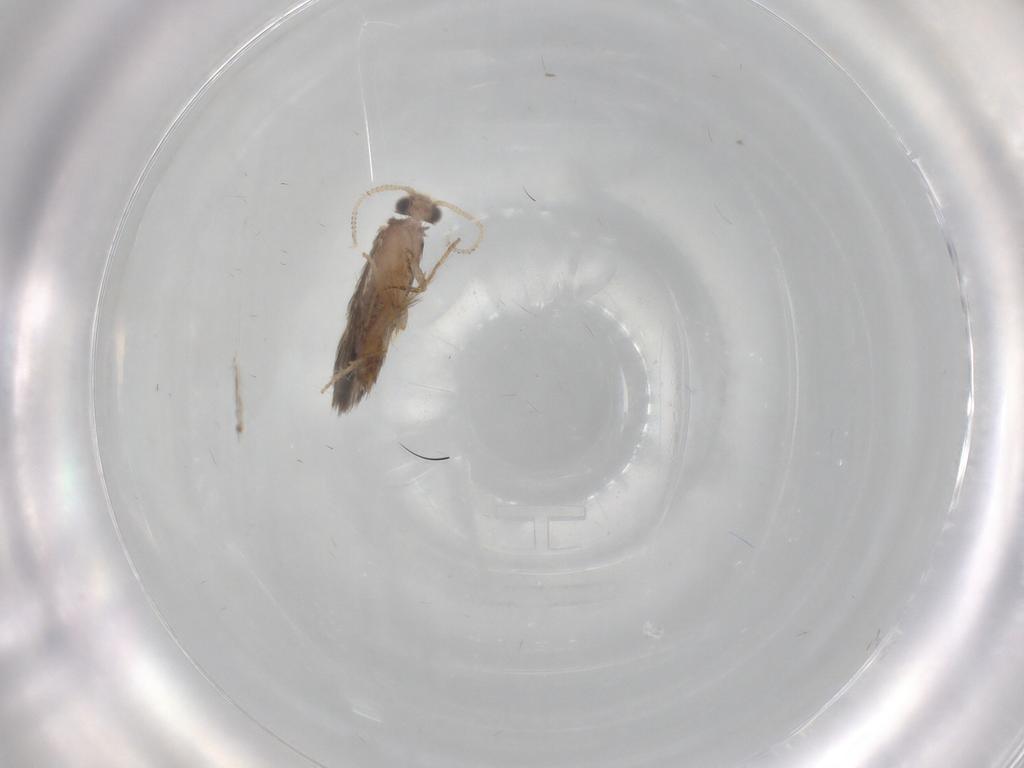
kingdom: Animalia
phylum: Arthropoda
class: Insecta
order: Trichoptera
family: Hydroptilidae
